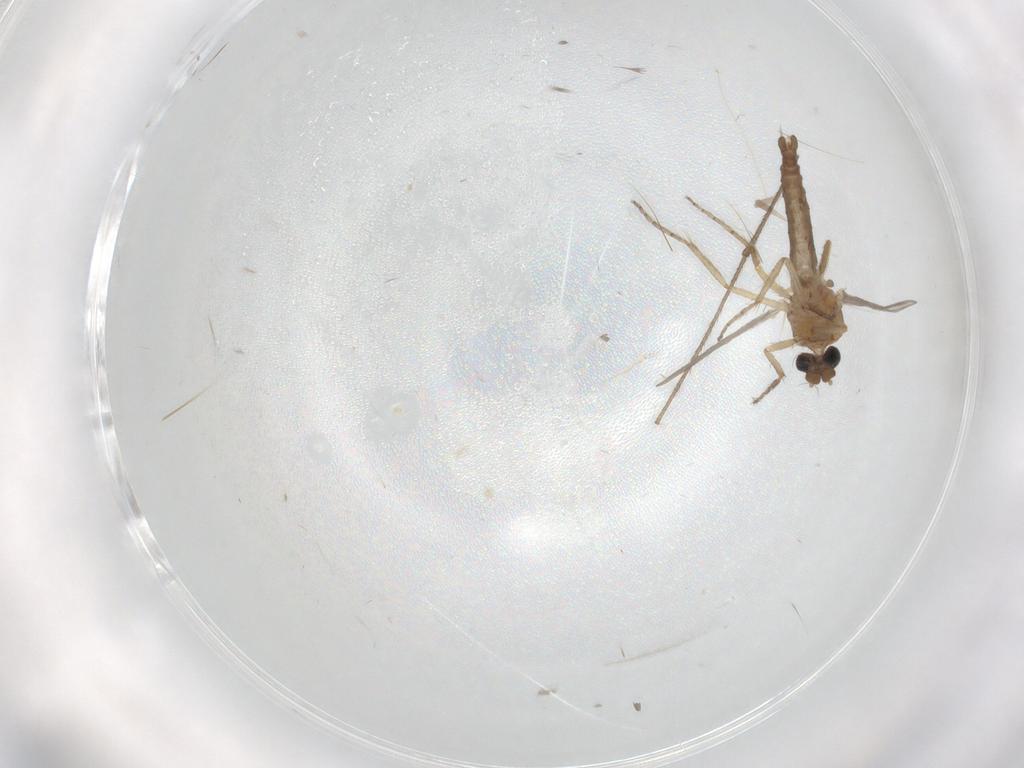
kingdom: Animalia
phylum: Arthropoda
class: Insecta
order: Diptera
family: Ceratopogonidae
